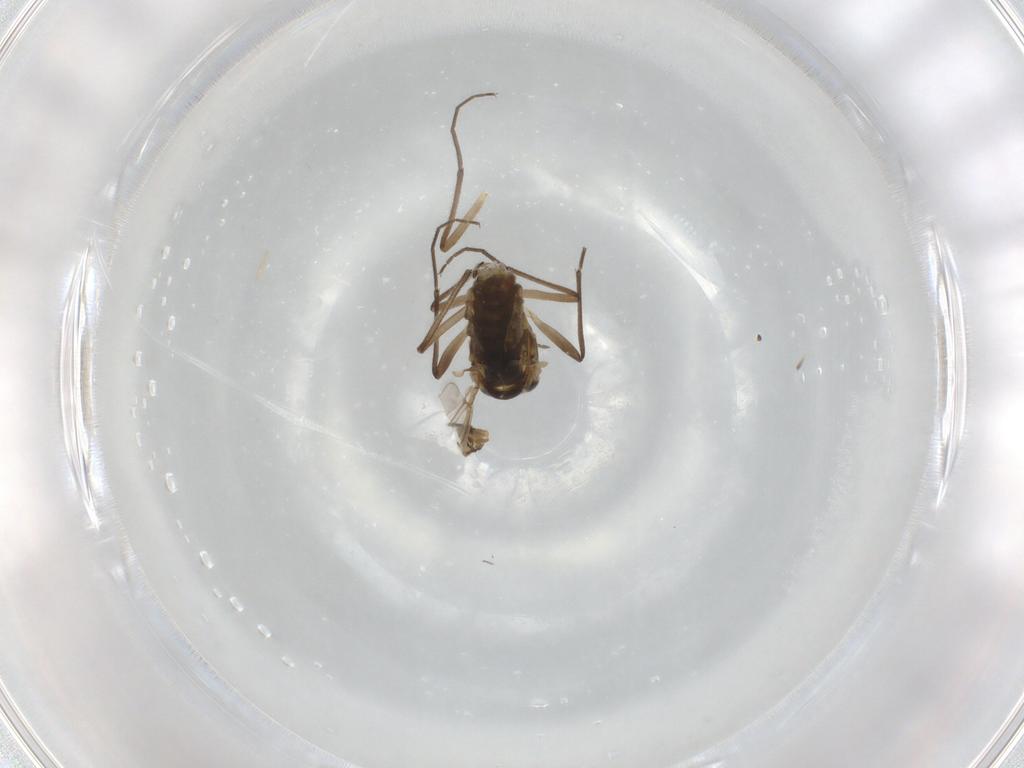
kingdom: Animalia
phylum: Arthropoda
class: Insecta
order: Diptera
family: Chironomidae
